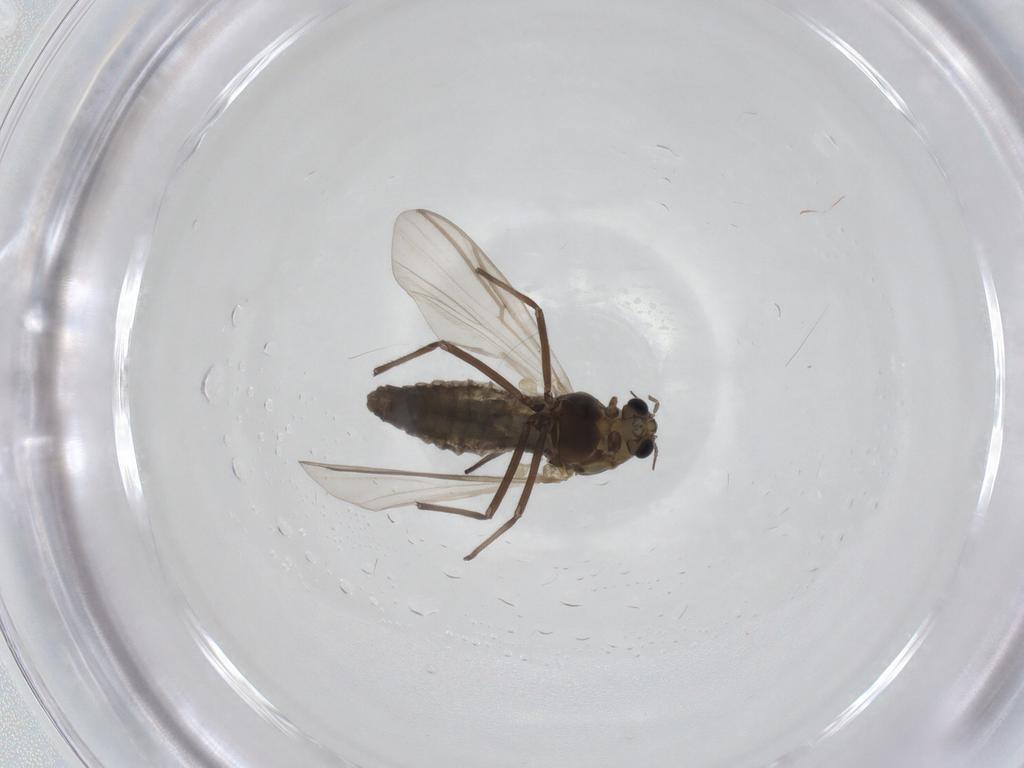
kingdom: Animalia
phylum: Arthropoda
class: Insecta
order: Diptera
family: Chironomidae
